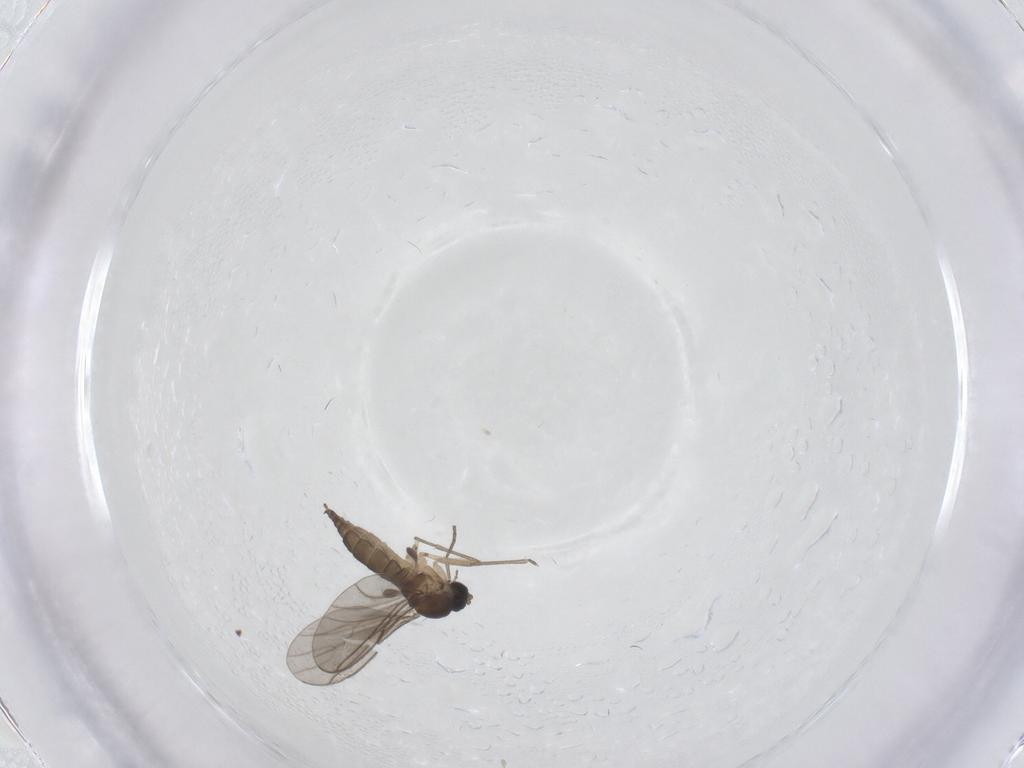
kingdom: Animalia
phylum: Arthropoda
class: Insecta
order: Diptera
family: Sciaridae
